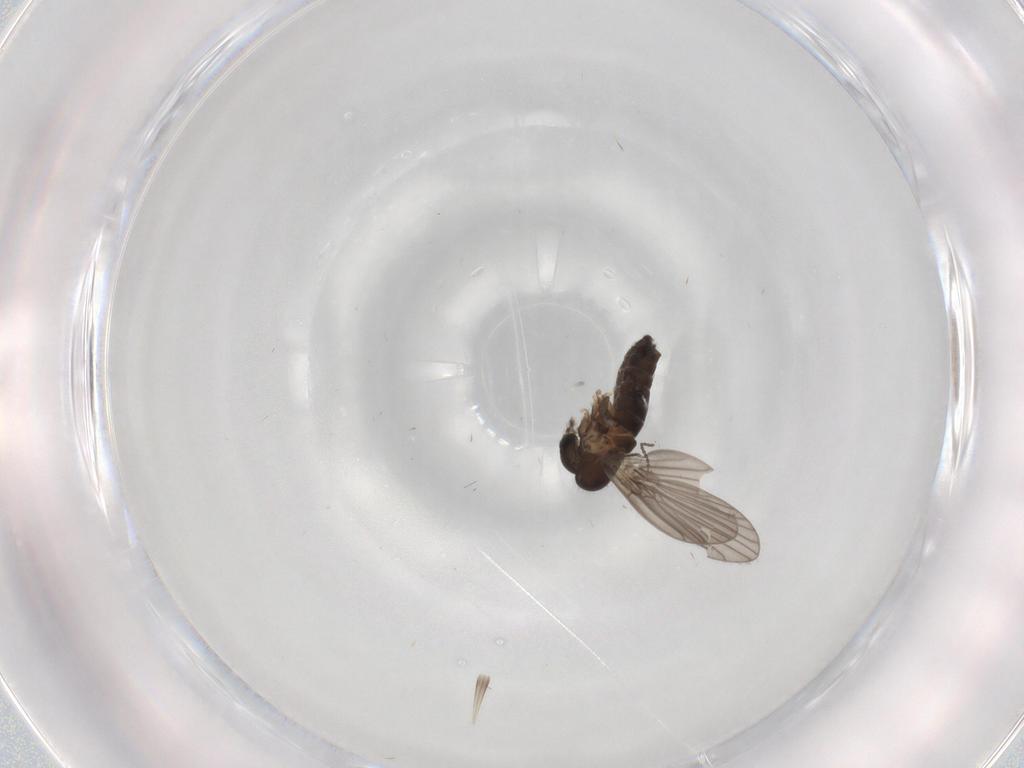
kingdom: Animalia
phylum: Arthropoda
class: Insecta
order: Diptera
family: Cecidomyiidae
